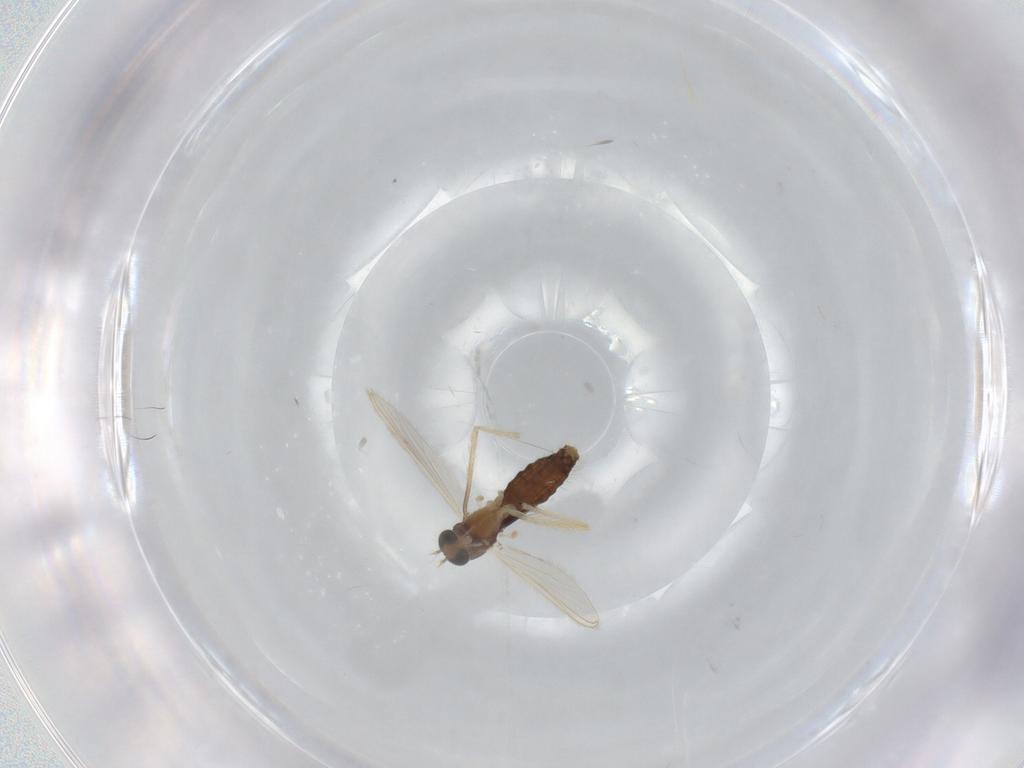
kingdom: Animalia
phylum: Arthropoda
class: Insecta
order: Diptera
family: Chironomidae
